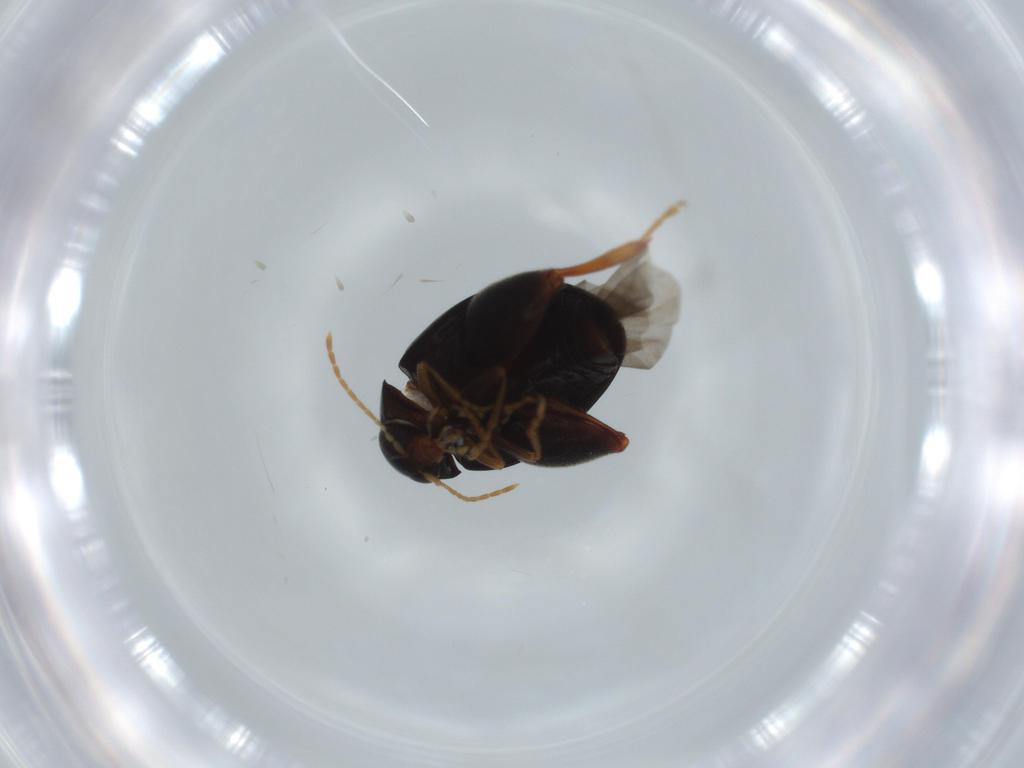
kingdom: Animalia
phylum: Arthropoda
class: Insecta
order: Coleoptera
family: Chrysomelidae
